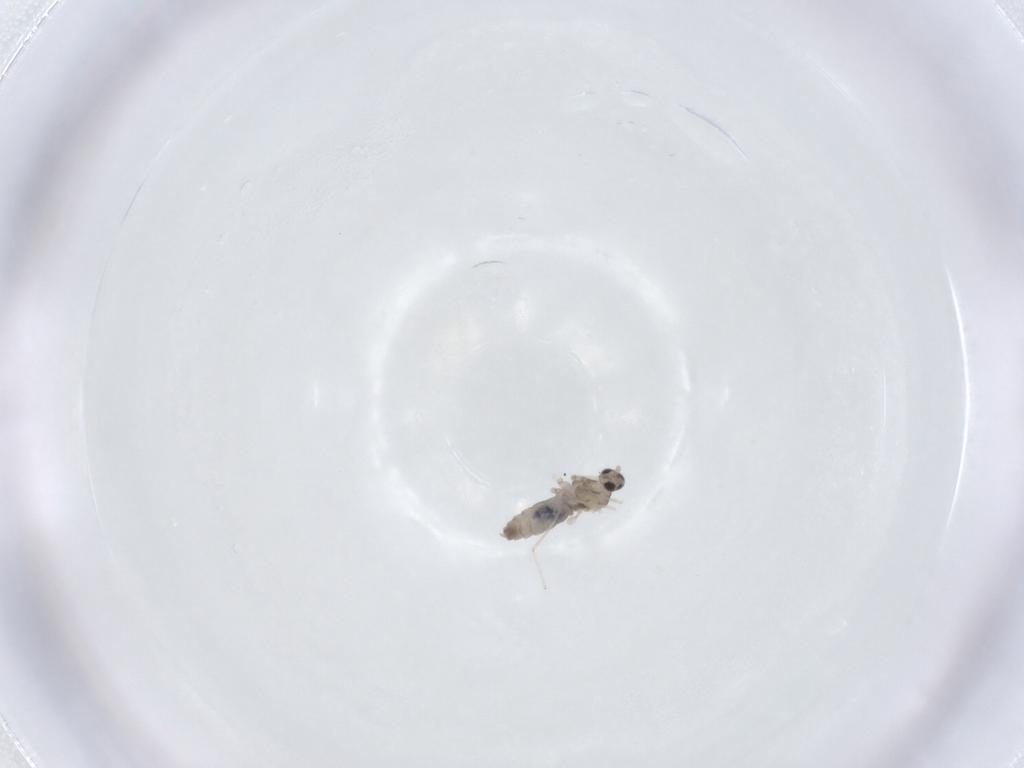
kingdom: Animalia
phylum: Arthropoda
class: Insecta
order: Diptera
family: Cecidomyiidae
